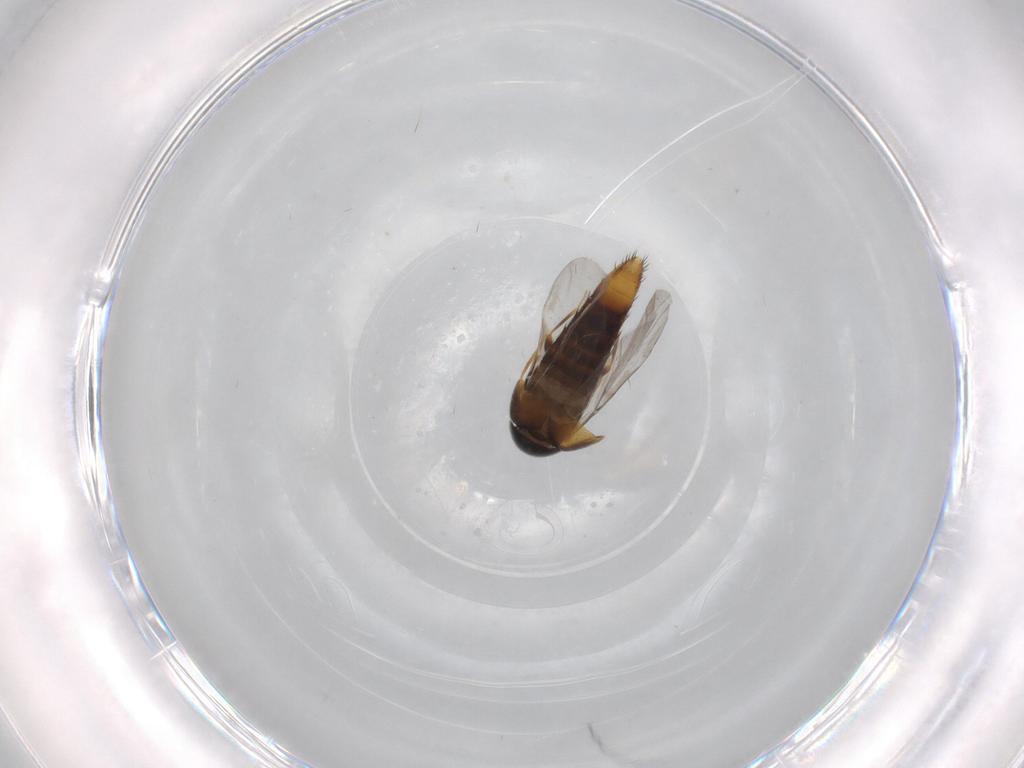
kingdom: Animalia
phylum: Arthropoda
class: Insecta
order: Coleoptera
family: Staphylinidae
